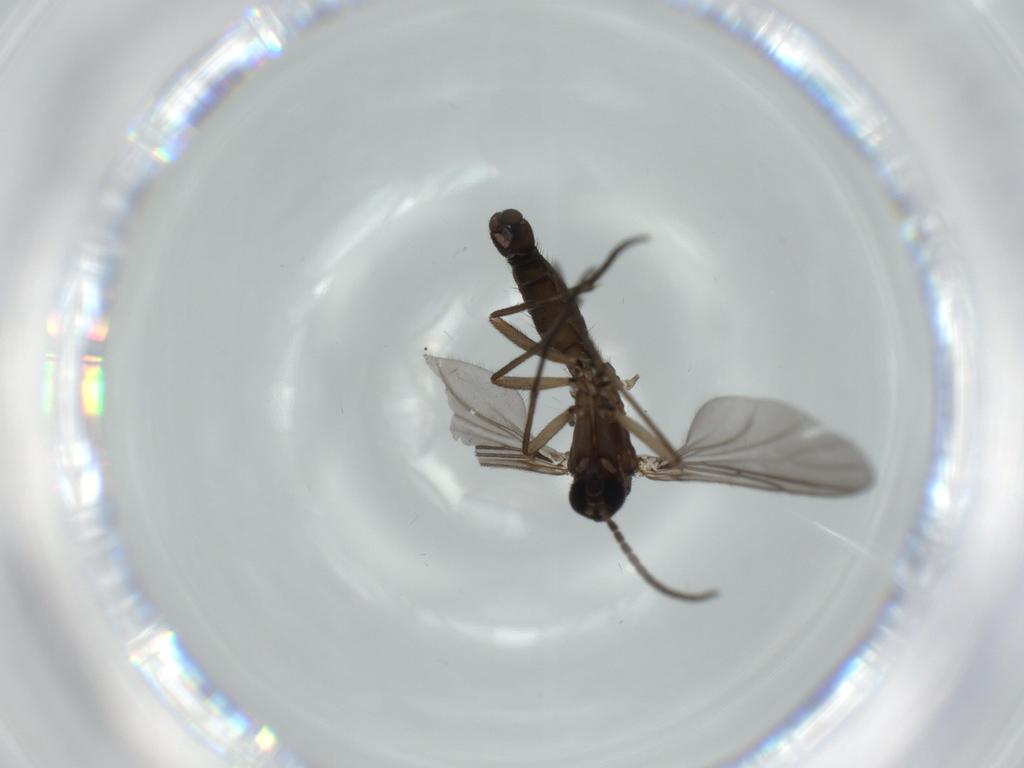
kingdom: Animalia
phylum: Arthropoda
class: Insecta
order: Diptera
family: Sciaridae
